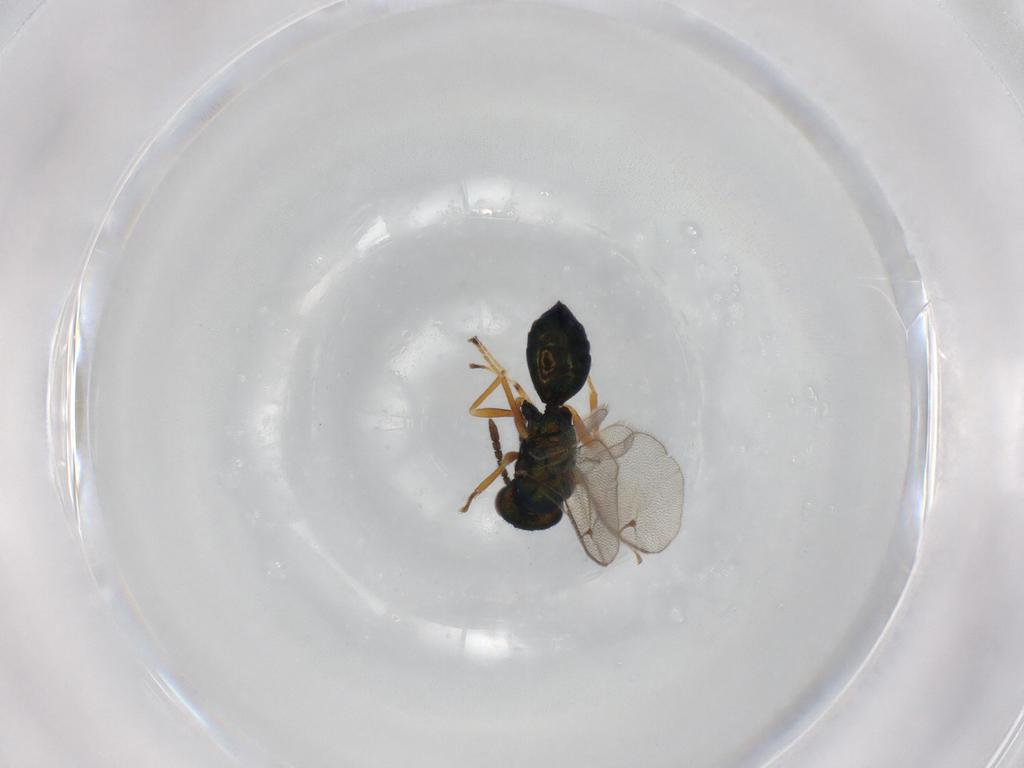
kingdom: Animalia
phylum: Arthropoda
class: Insecta
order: Hymenoptera
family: Pteromalidae
